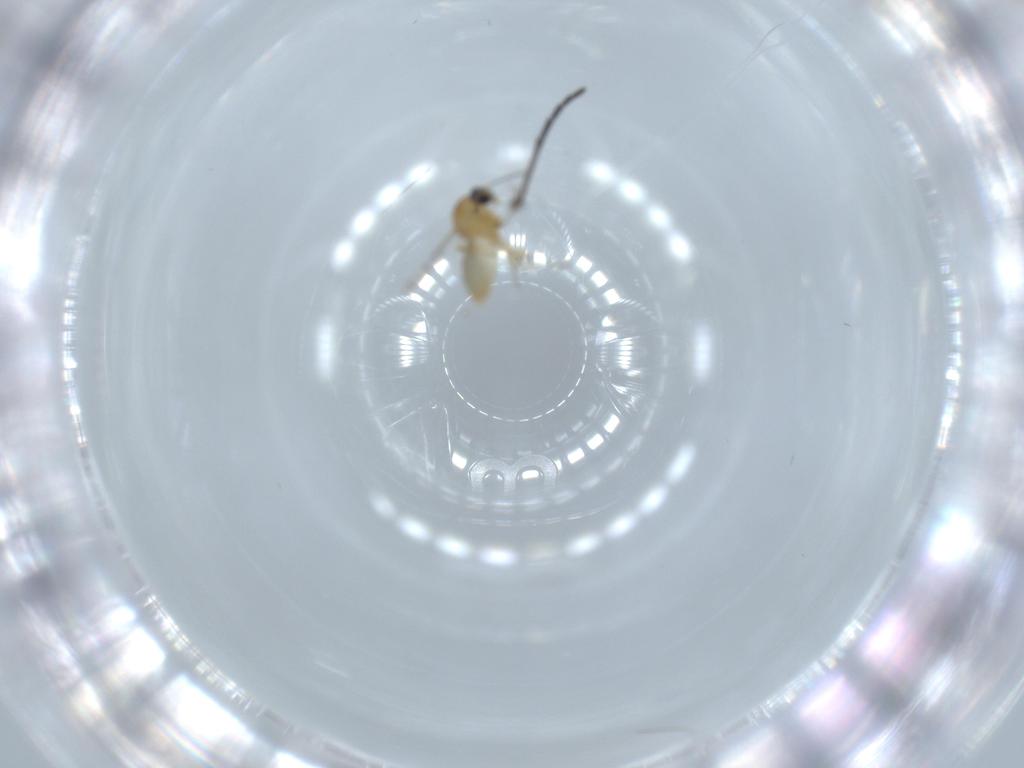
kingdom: Animalia
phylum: Arthropoda
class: Insecta
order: Diptera
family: Ceratopogonidae
